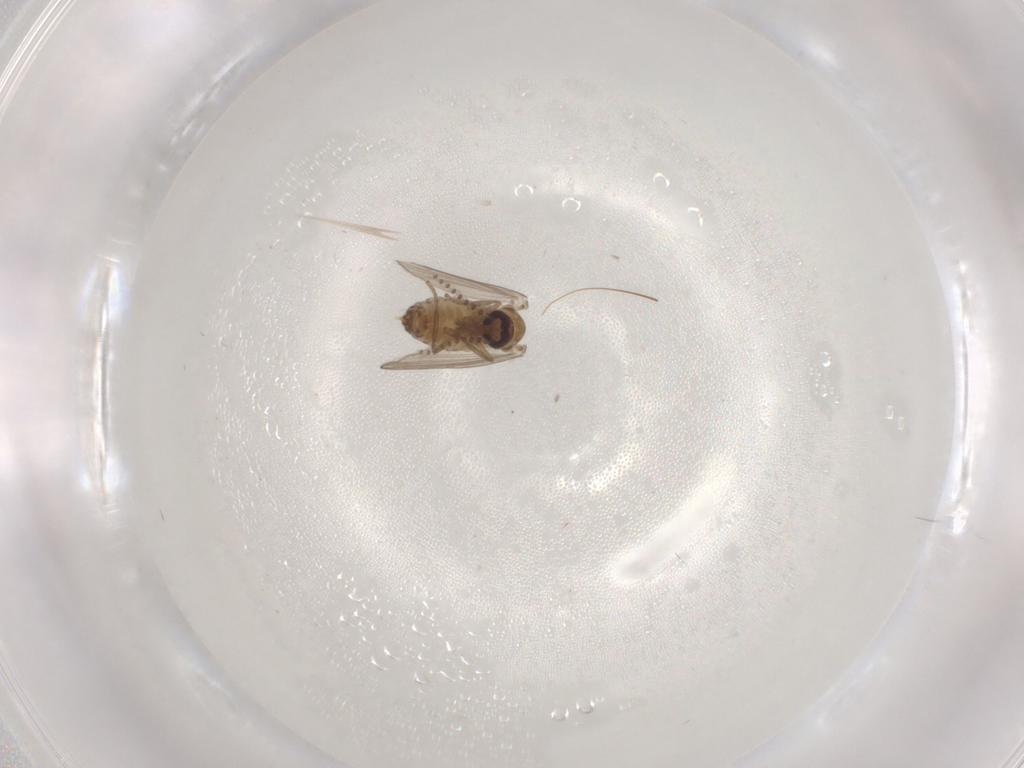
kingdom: Animalia
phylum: Arthropoda
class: Insecta
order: Diptera
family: Psychodidae
